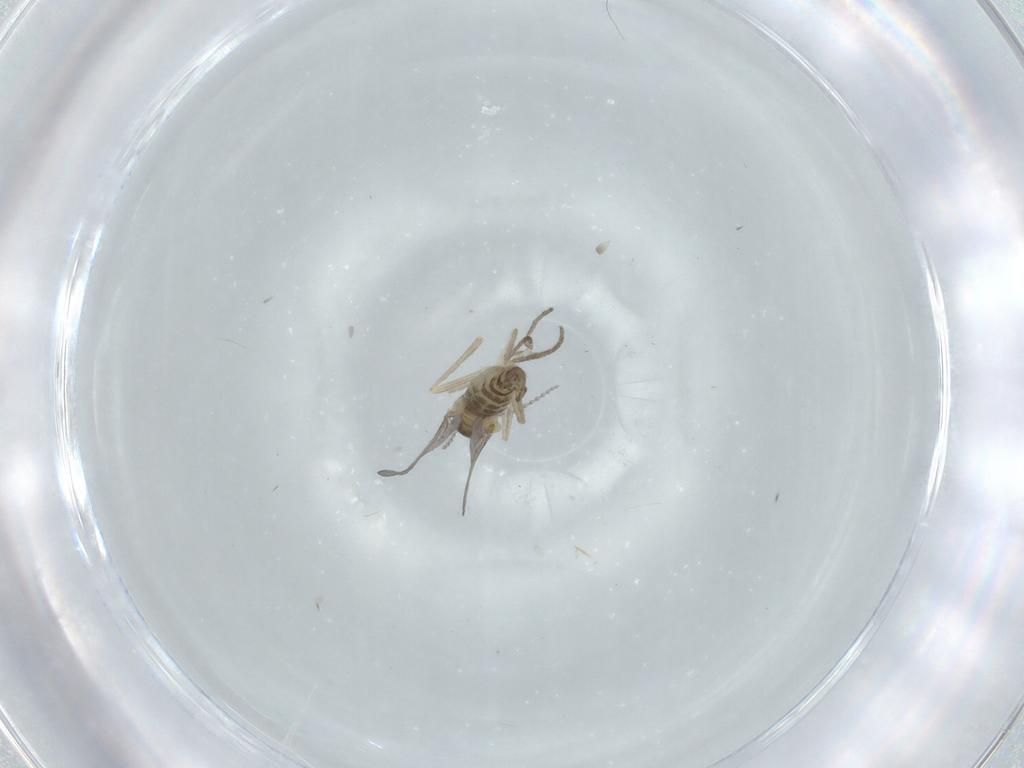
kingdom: Animalia
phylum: Arthropoda
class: Insecta
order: Diptera
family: Cecidomyiidae
